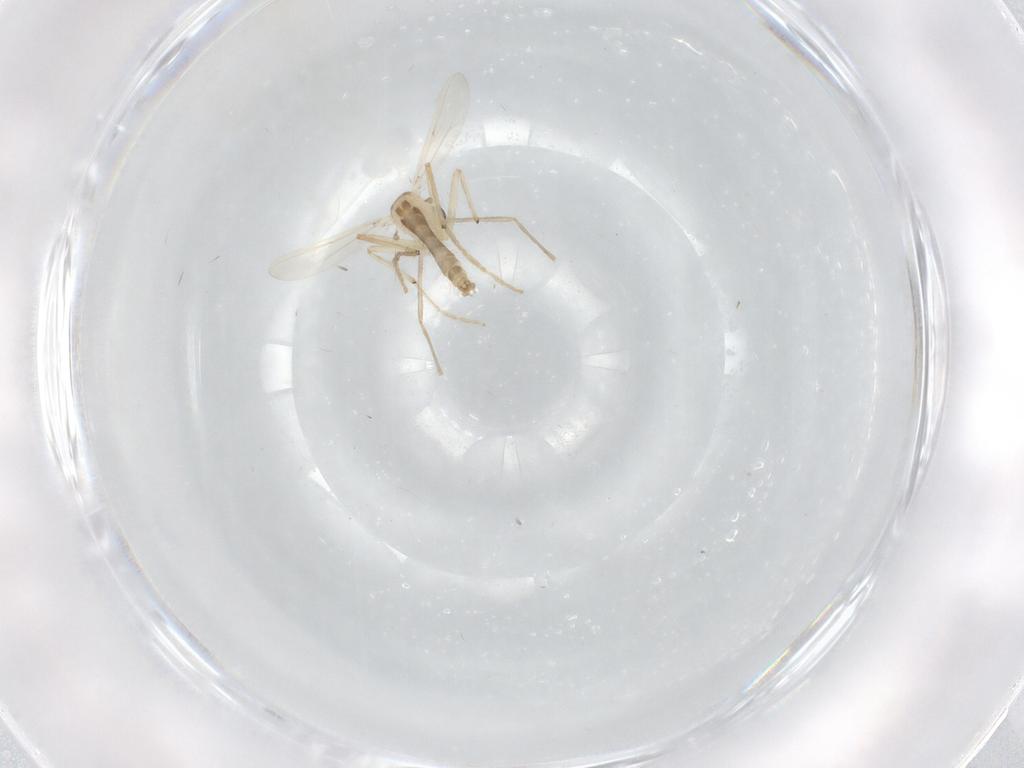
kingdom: Animalia
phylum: Arthropoda
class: Insecta
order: Diptera
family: Chironomidae
